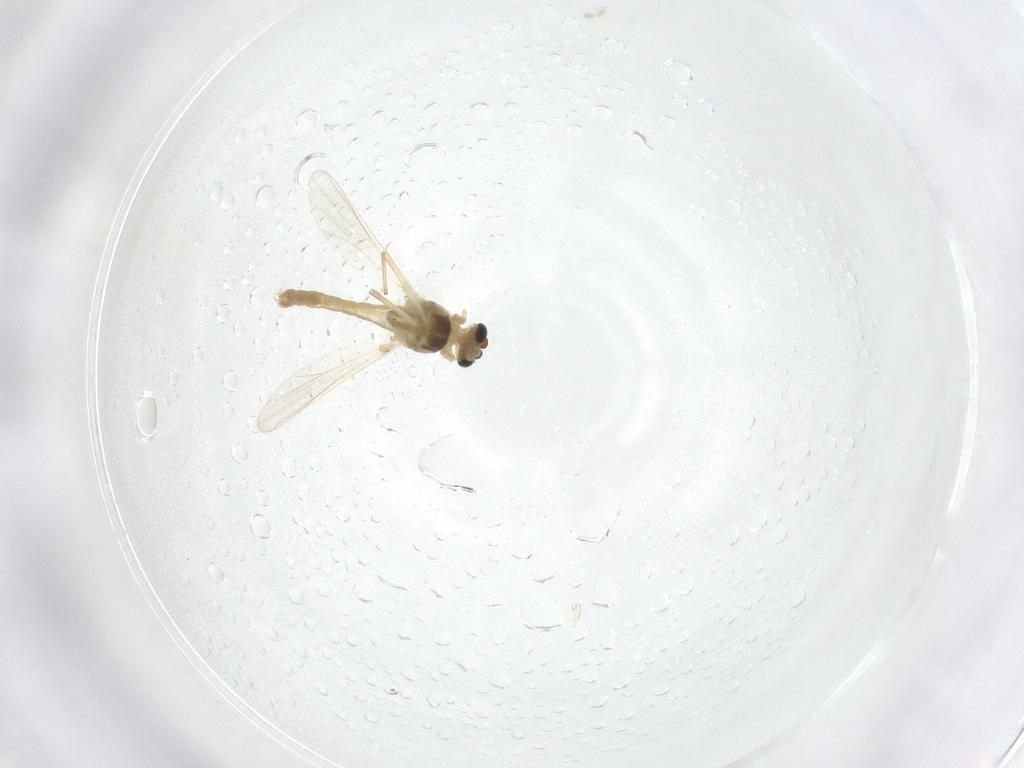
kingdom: Animalia
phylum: Arthropoda
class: Insecta
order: Diptera
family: Chironomidae
